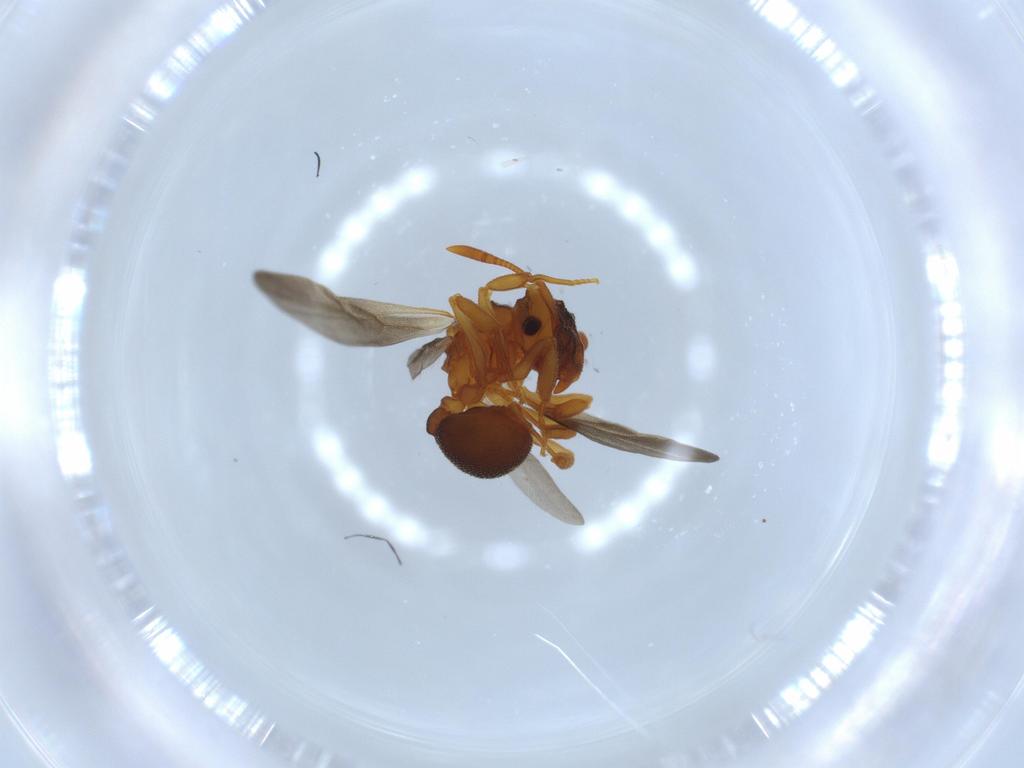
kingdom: Animalia
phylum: Arthropoda
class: Insecta
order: Hymenoptera
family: Formicidae
